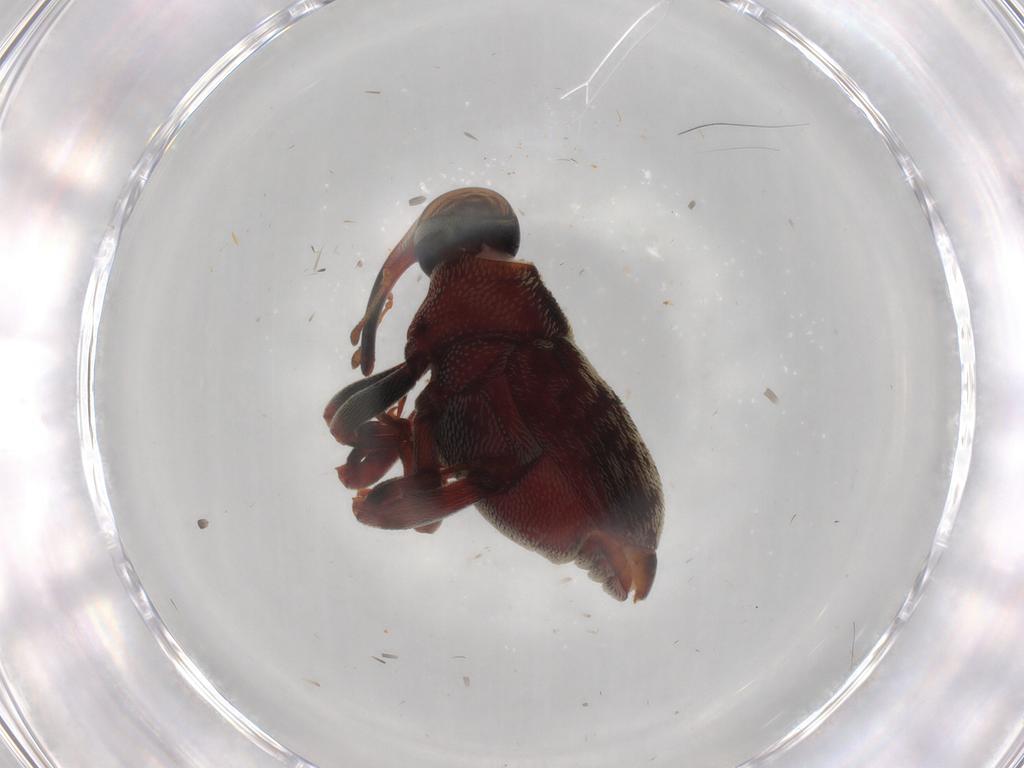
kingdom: Animalia
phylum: Arthropoda
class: Insecta
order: Coleoptera
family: Curculionidae
